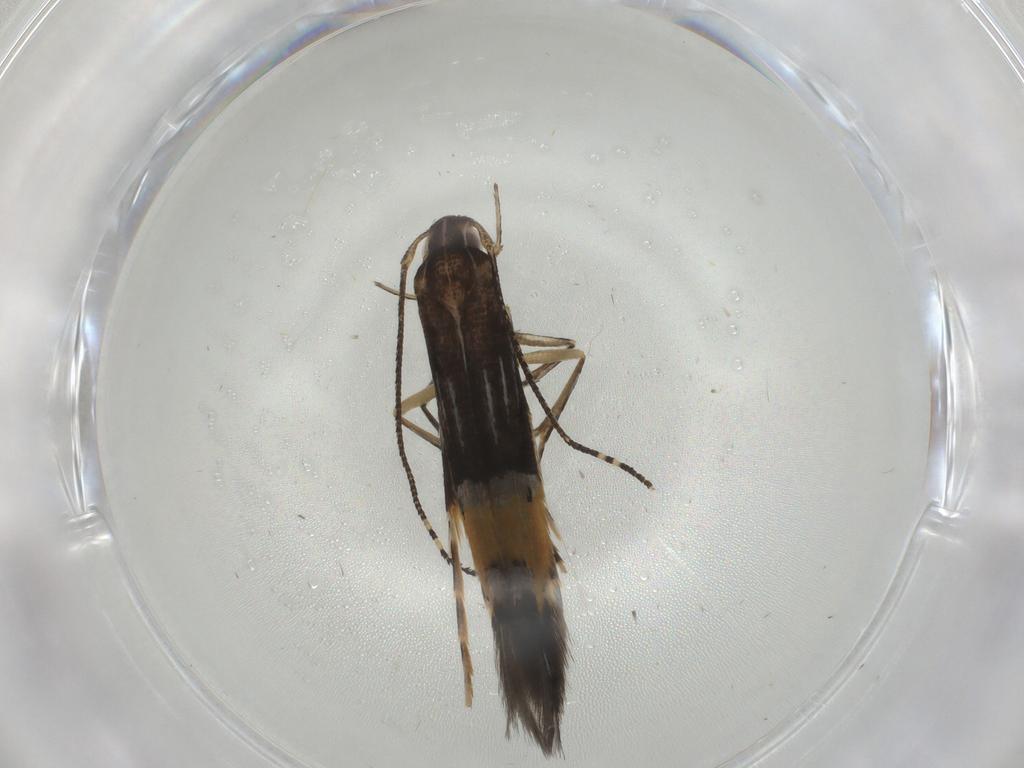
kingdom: Animalia
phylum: Arthropoda
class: Insecta
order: Lepidoptera
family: Cosmopterigidae
